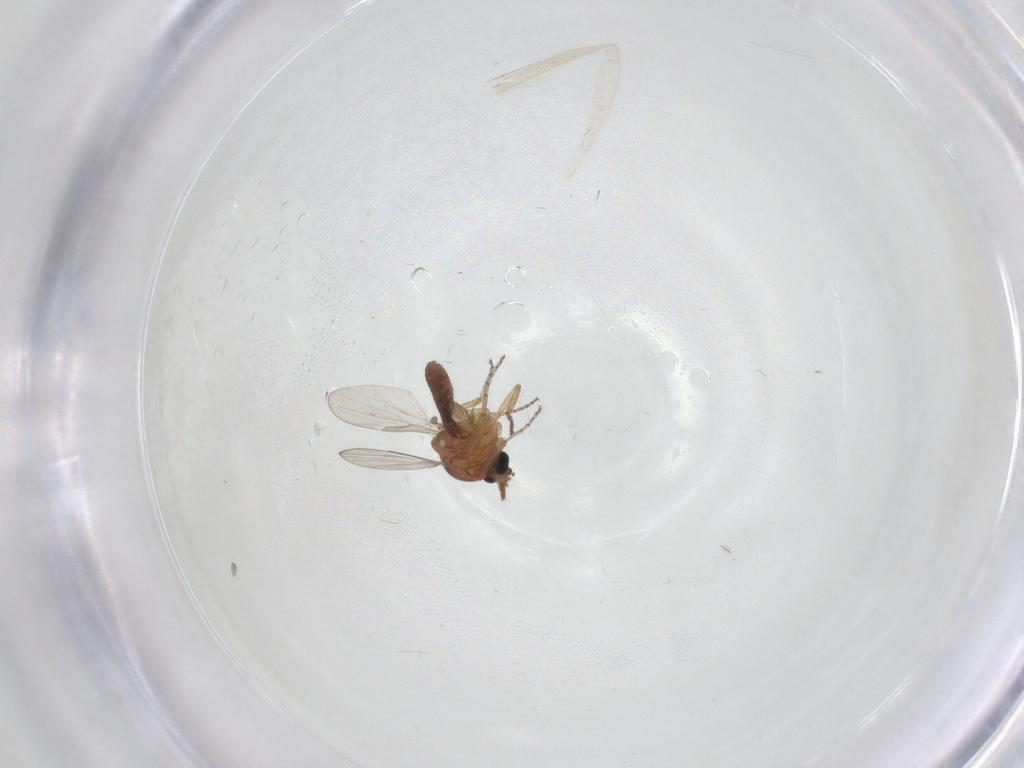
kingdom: Animalia
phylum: Arthropoda
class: Insecta
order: Diptera
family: Ceratopogonidae
